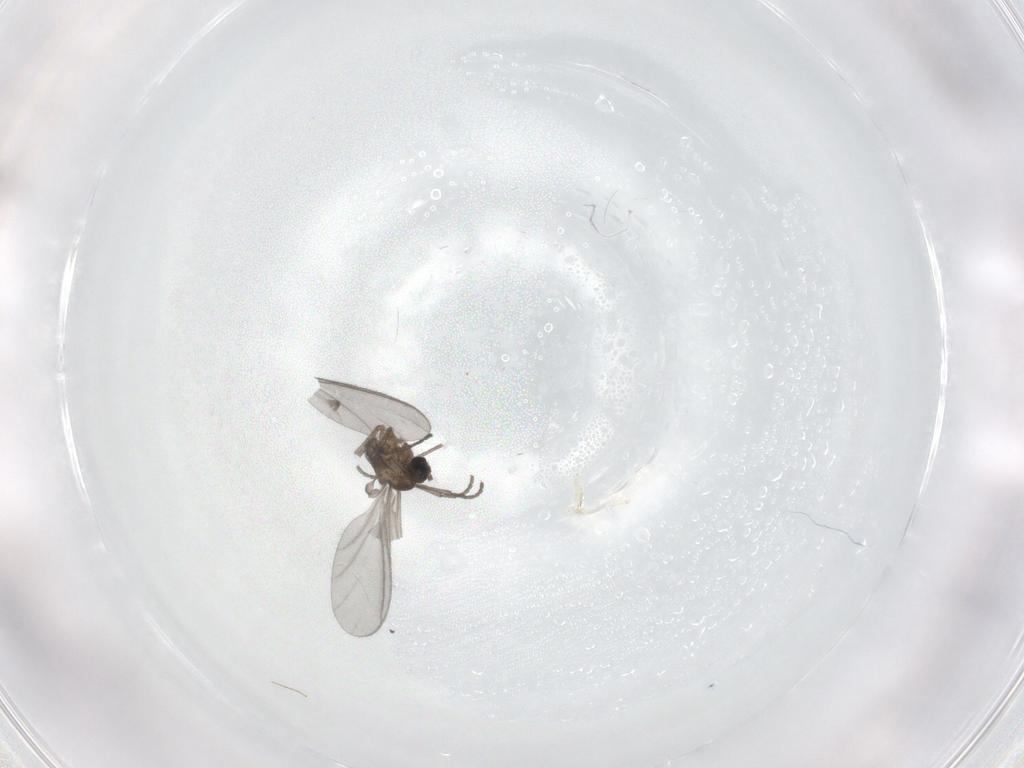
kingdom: Animalia
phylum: Arthropoda
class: Insecta
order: Diptera
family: Sciaridae
